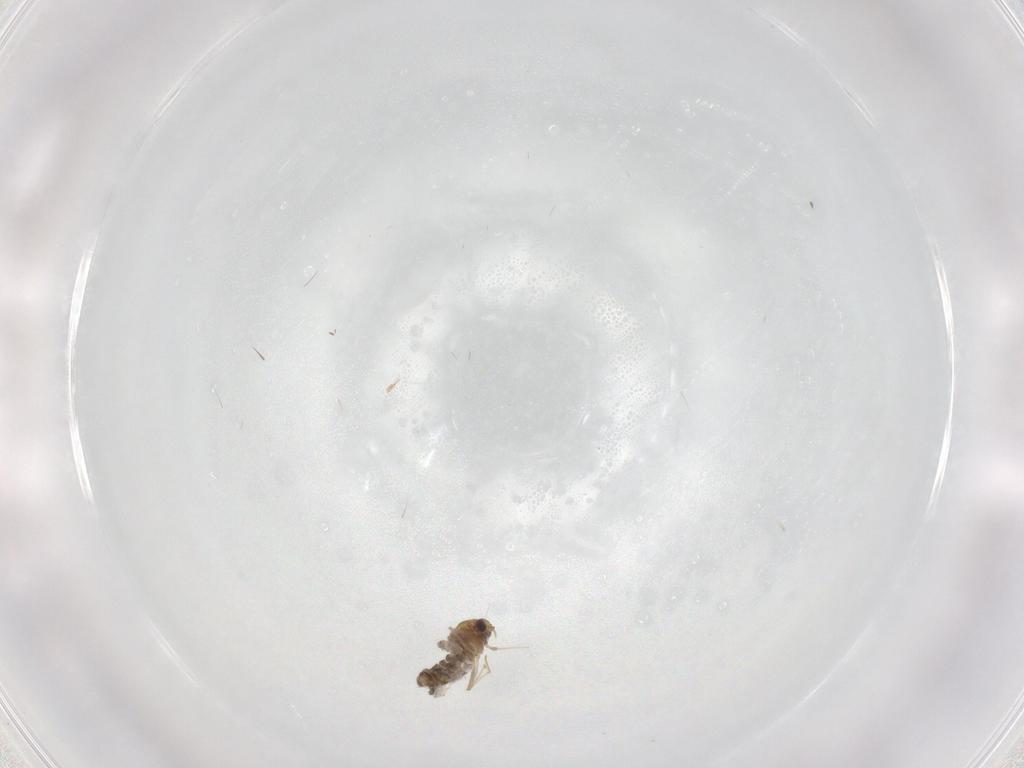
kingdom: Animalia
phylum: Arthropoda
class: Insecta
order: Diptera
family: Chironomidae
